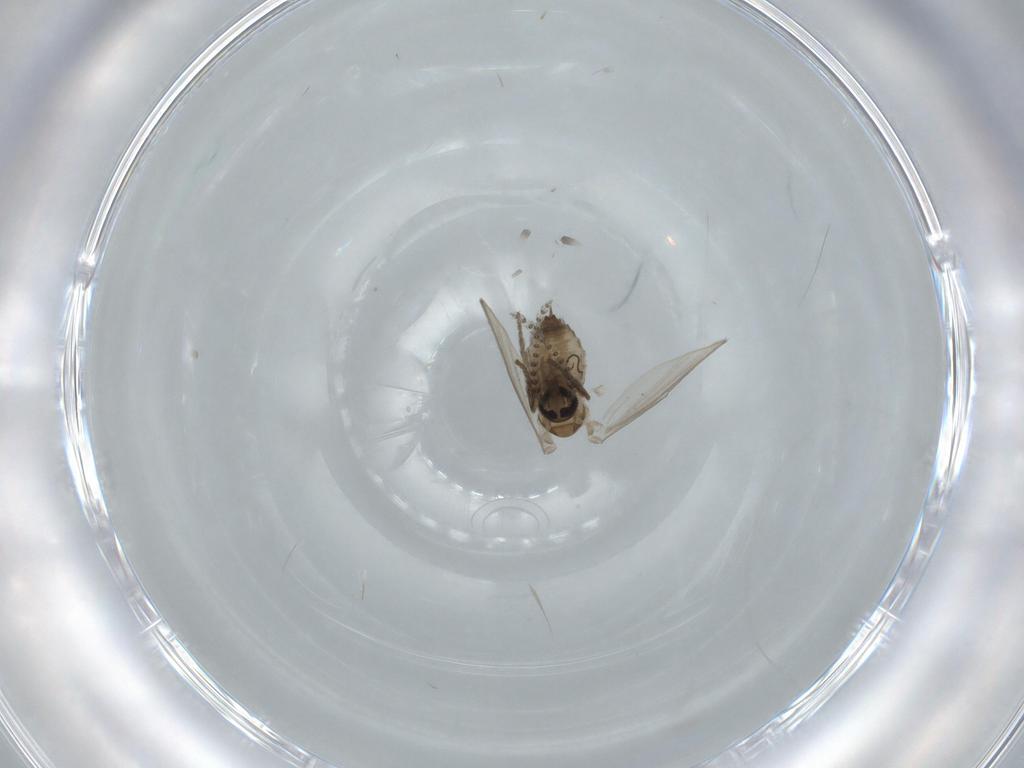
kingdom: Animalia
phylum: Arthropoda
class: Insecta
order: Diptera
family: Psychodidae
